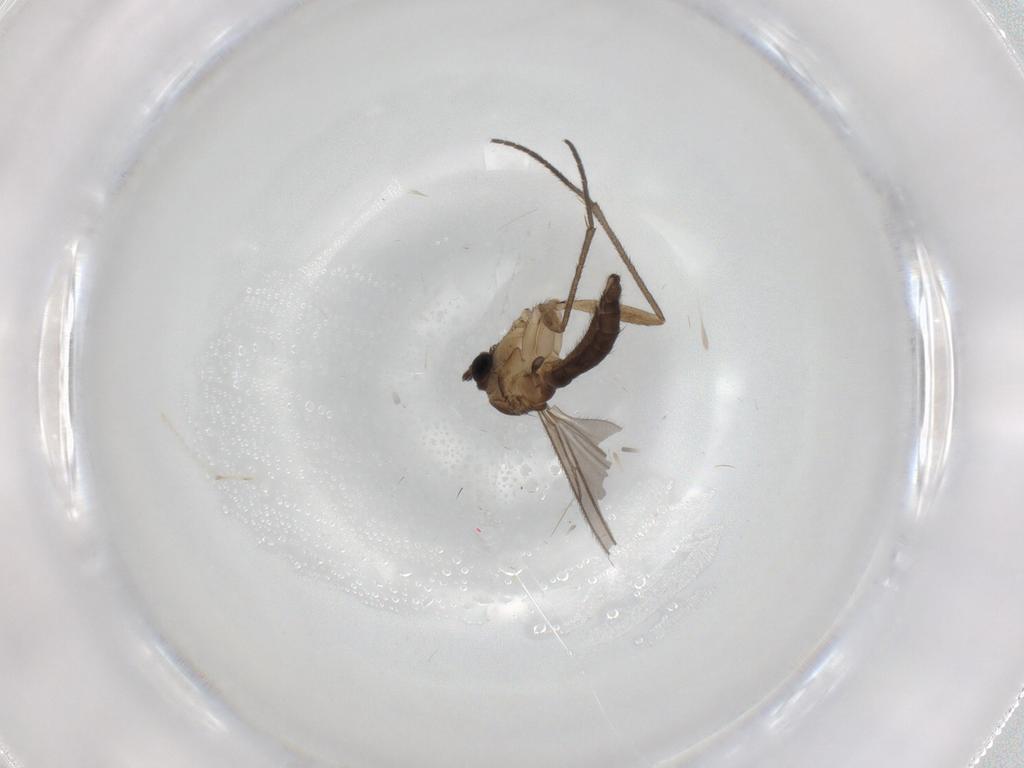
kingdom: Animalia
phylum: Arthropoda
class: Insecta
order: Diptera
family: Sciaridae
